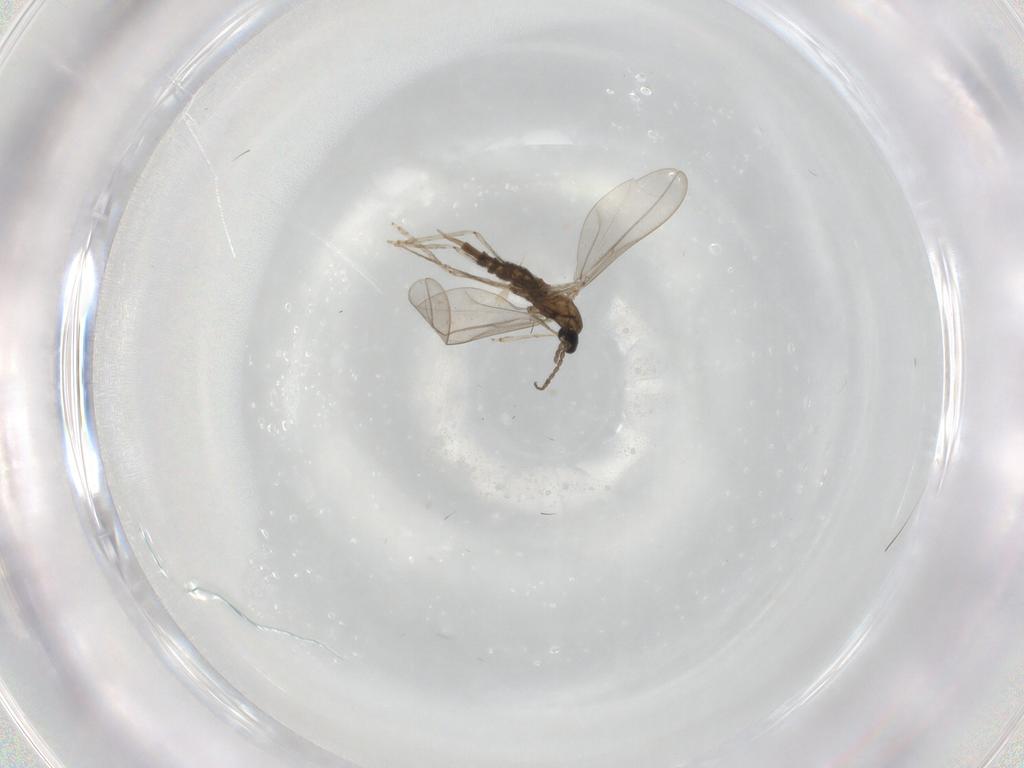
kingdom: Animalia
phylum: Arthropoda
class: Insecta
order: Diptera
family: Cecidomyiidae
